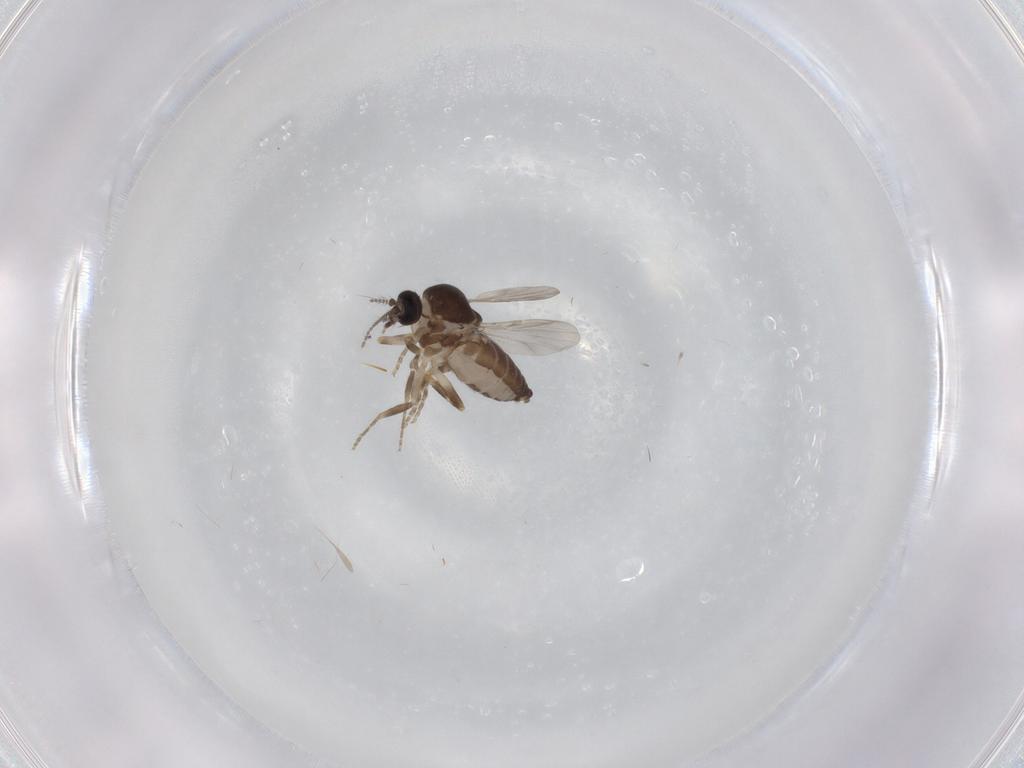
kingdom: Animalia
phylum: Arthropoda
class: Insecta
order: Diptera
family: Ceratopogonidae
